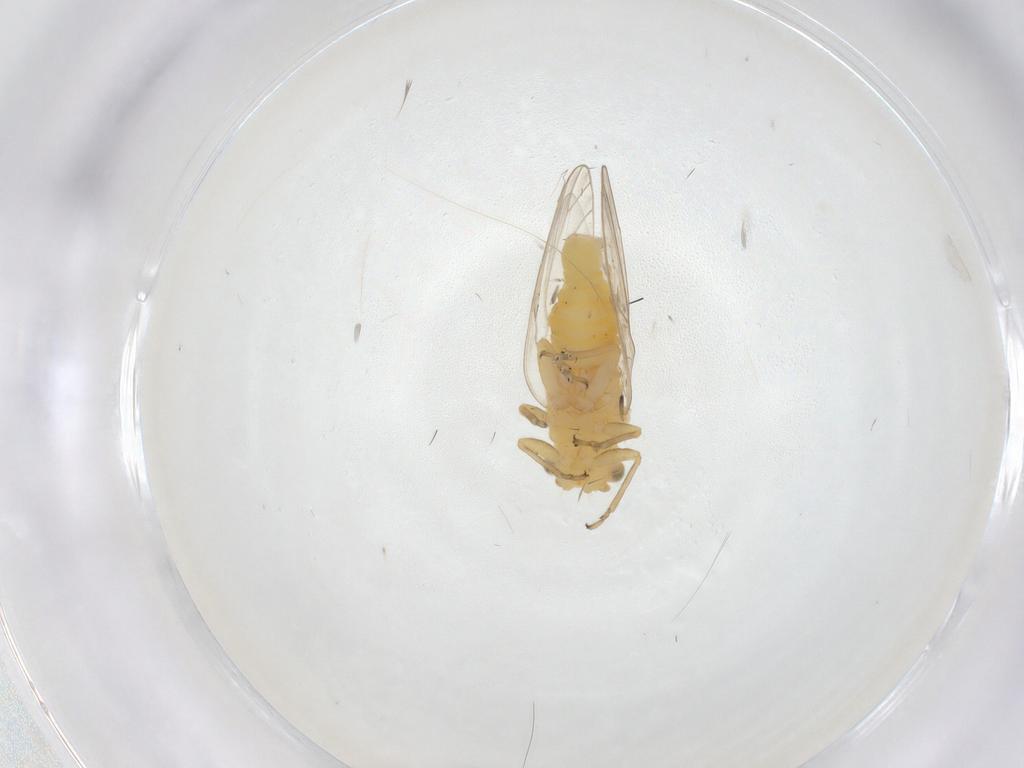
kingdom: Animalia
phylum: Arthropoda
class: Insecta
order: Hemiptera
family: Psyllidae
